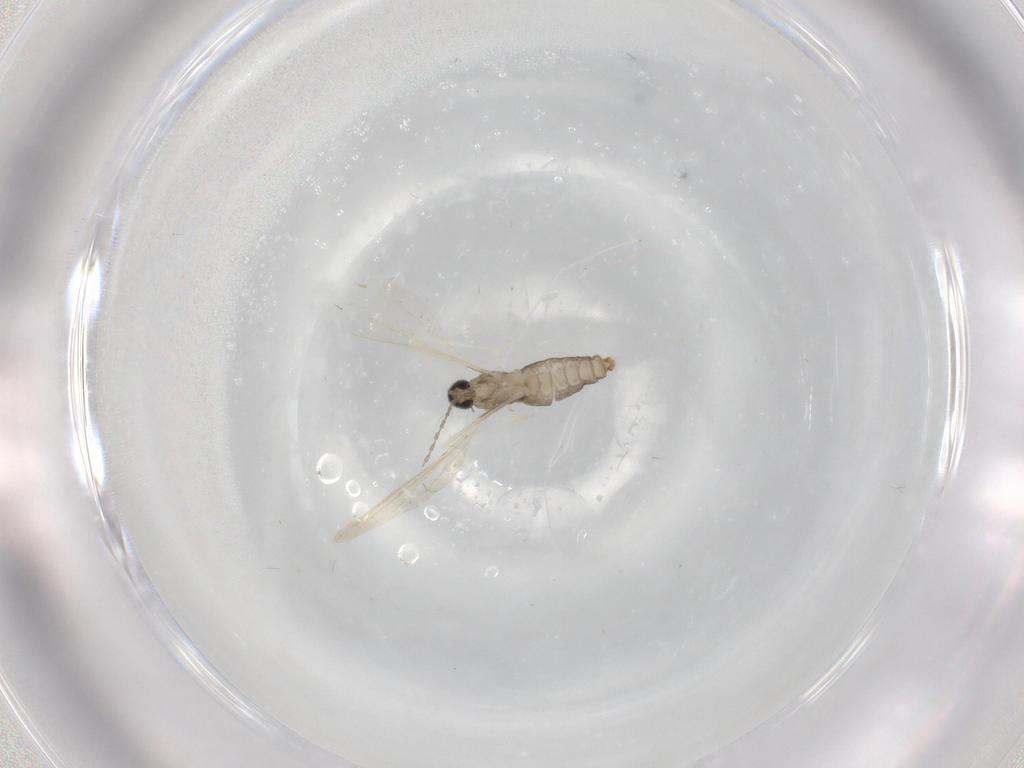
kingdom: Animalia
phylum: Arthropoda
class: Insecta
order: Diptera
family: Cecidomyiidae
